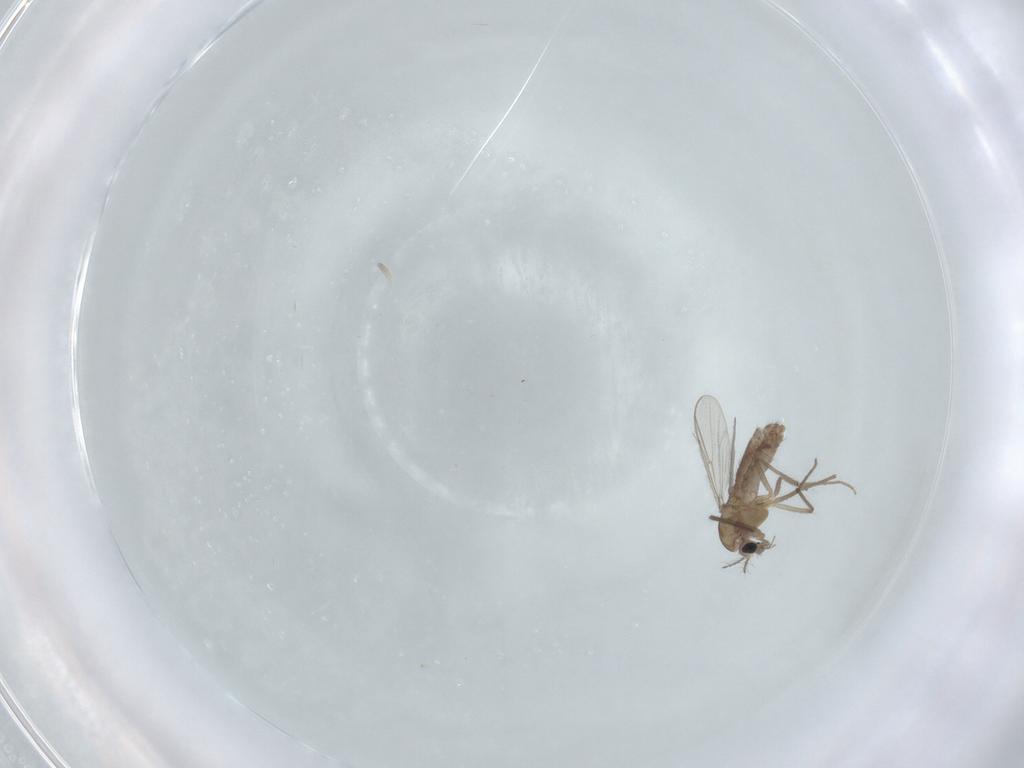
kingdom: Animalia
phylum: Arthropoda
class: Insecta
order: Diptera
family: Chironomidae
